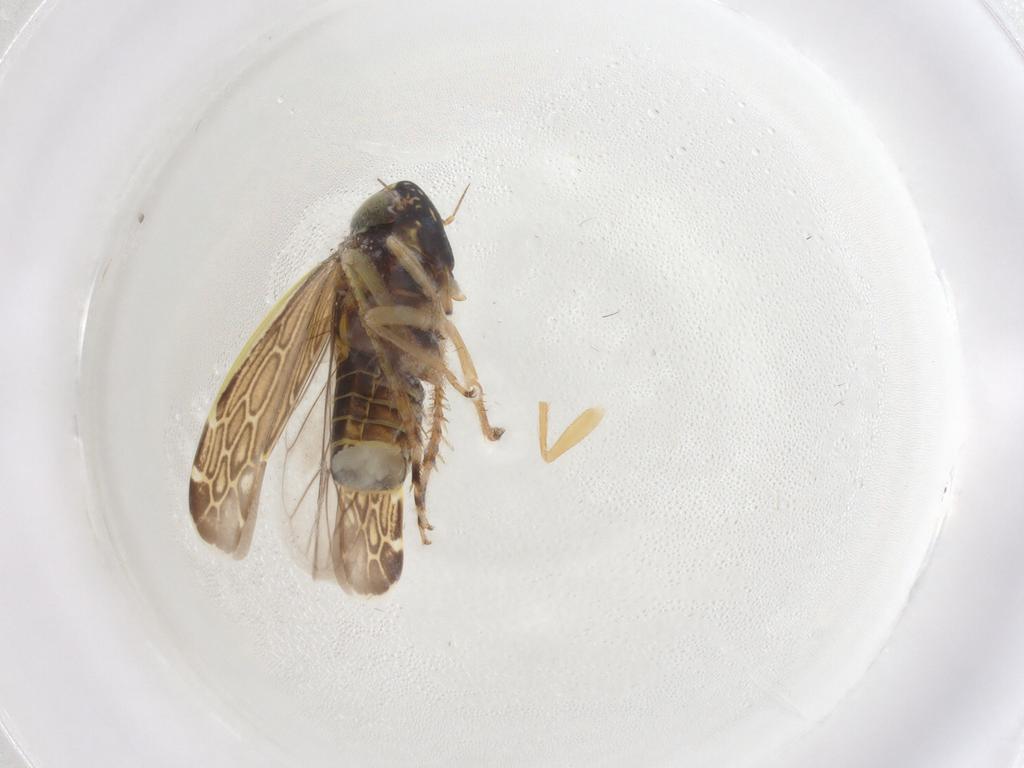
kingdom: Animalia
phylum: Arthropoda
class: Insecta
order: Hemiptera
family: Cicadellidae
